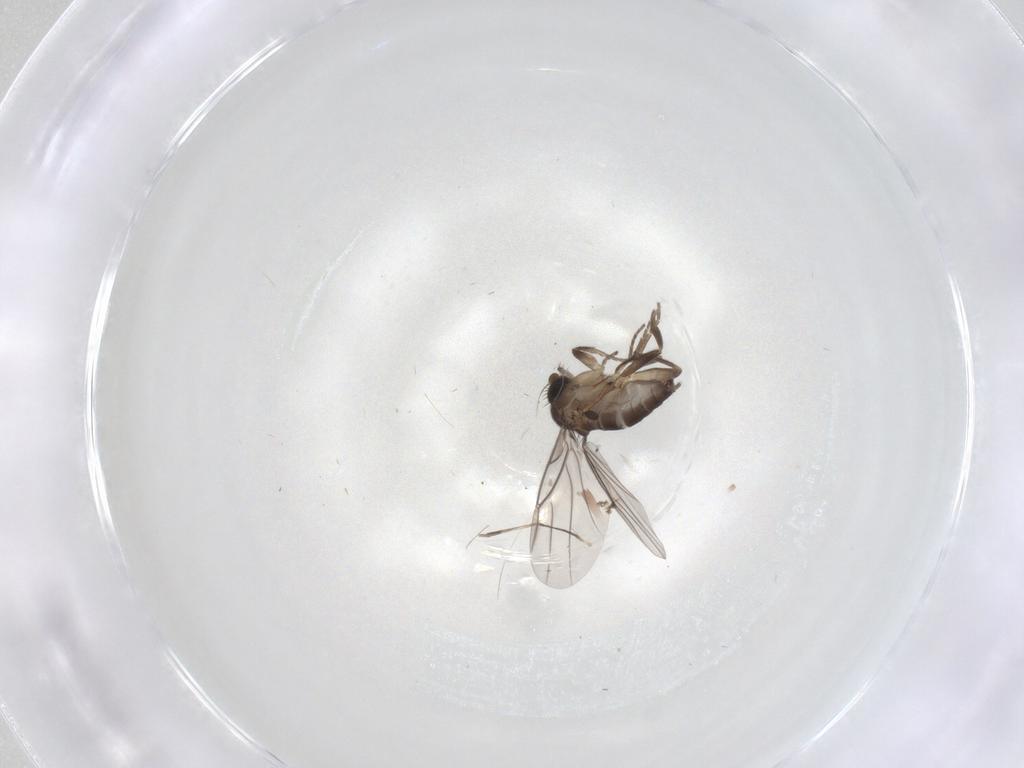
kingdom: Animalia
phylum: Arthropoda
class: Insecta
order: Diptera
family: Cecidomyiidae
